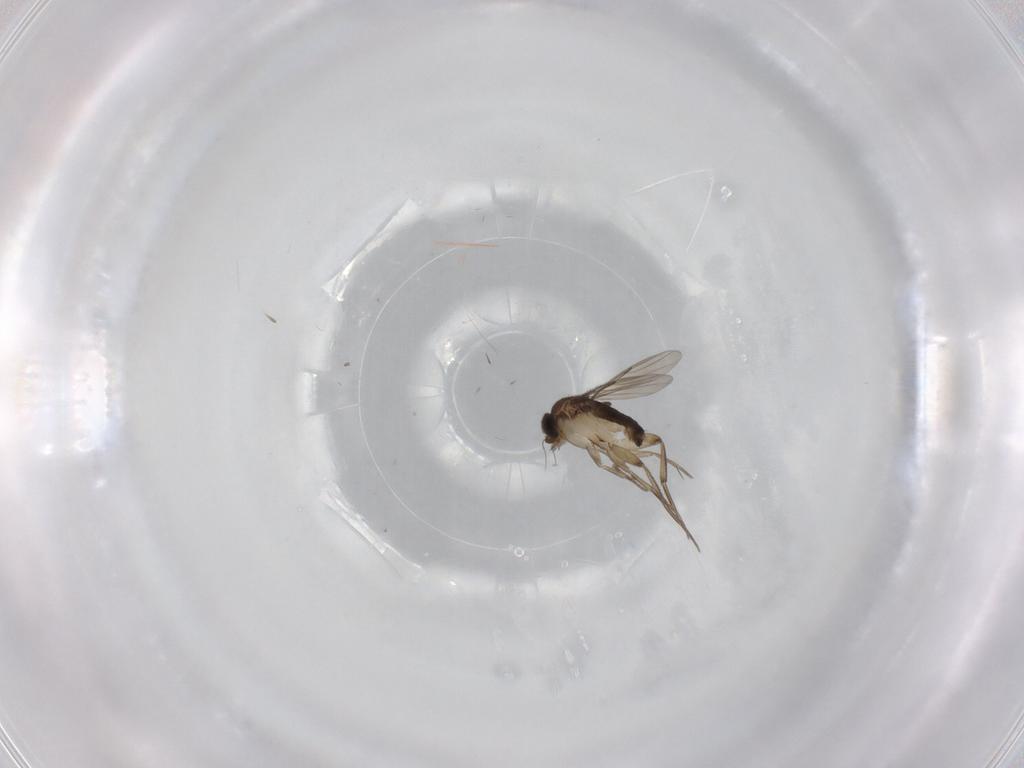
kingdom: Animalia
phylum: Arthropoda
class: Insecta
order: Diptera
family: Phoridae
